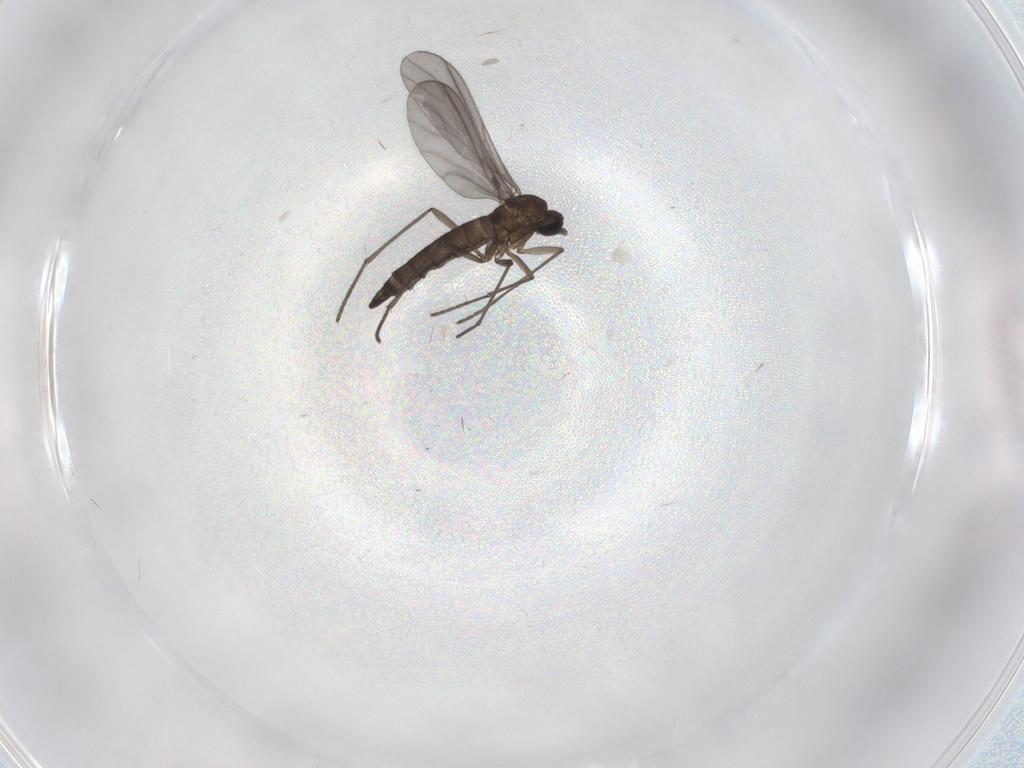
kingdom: Animalia
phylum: Arthropoda
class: Insecta
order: Diptera
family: Sciaridae
